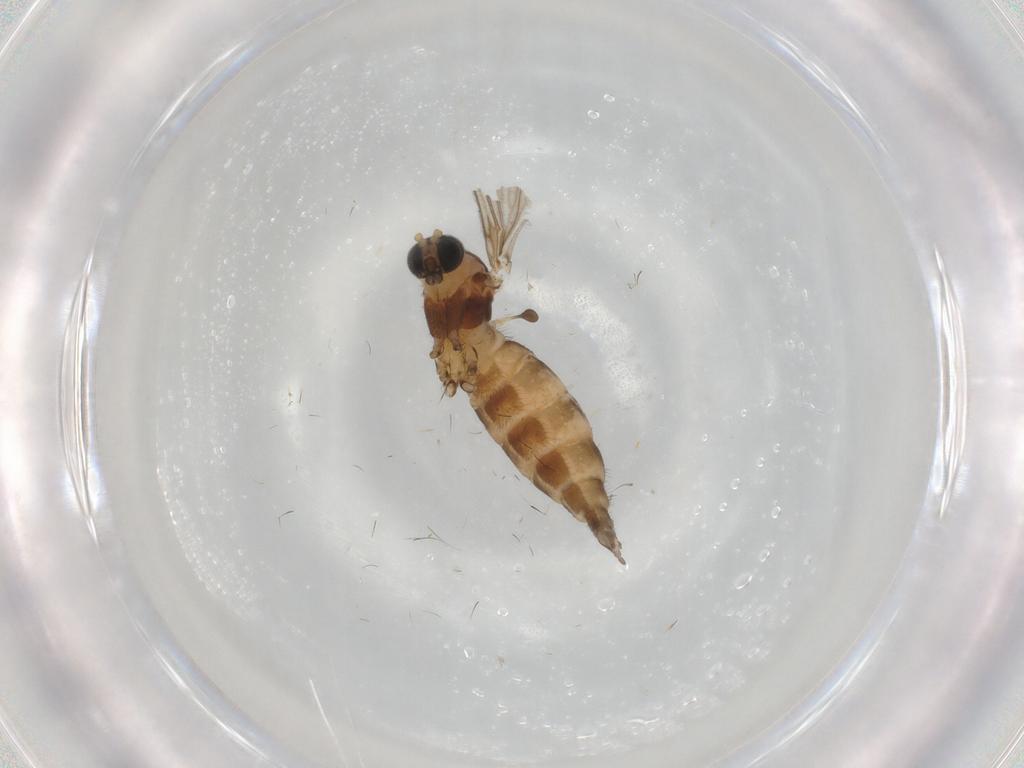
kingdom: Animalia
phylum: Arthropoda
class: Insecta
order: Diptera
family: Sciaridae
